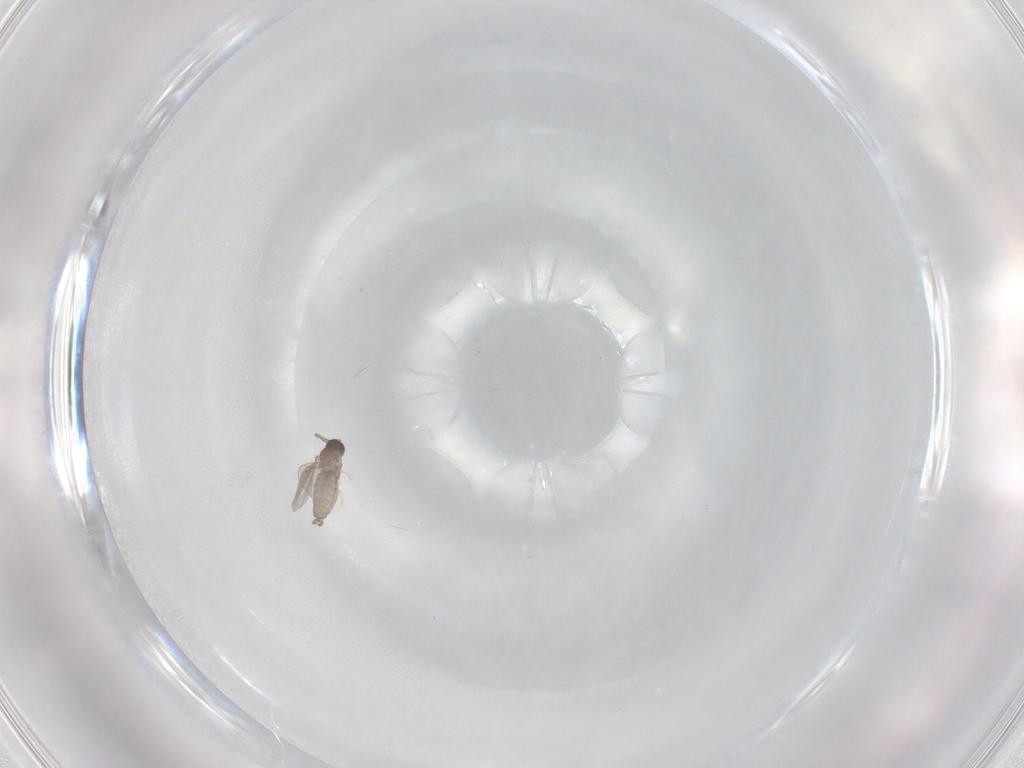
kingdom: Animalia
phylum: Arthropoda
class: Insecta
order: Diptera
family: Cecidomyiidae
